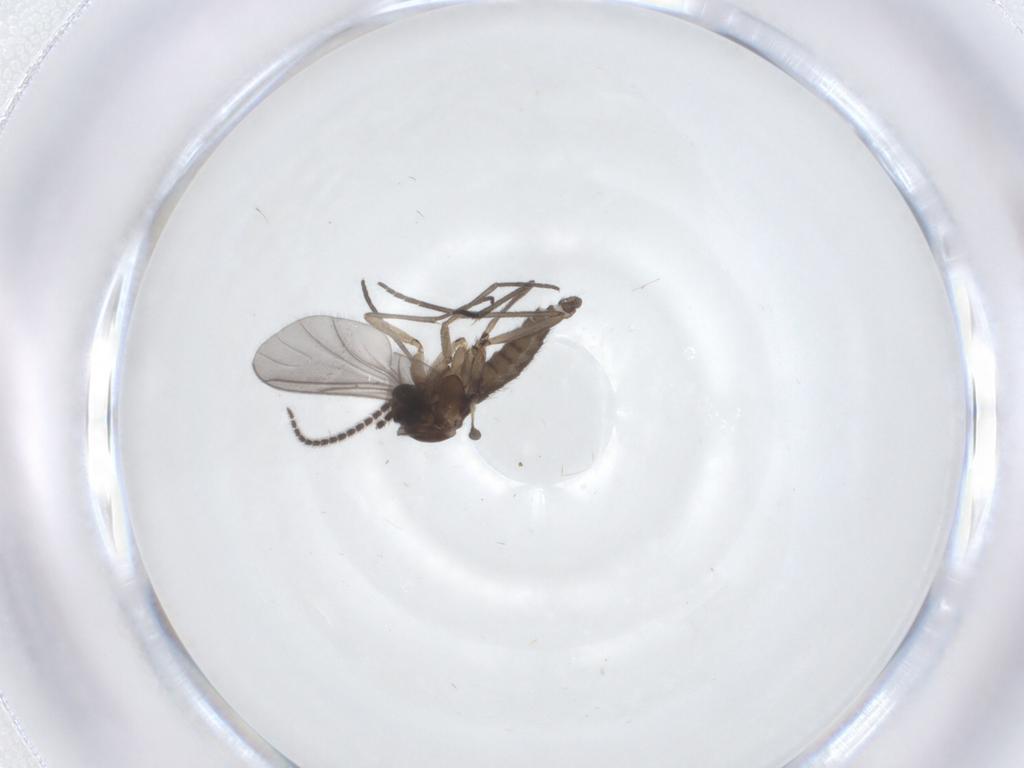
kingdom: Animalia
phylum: Arthropoda
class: Insecta
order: Diptera
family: Sciaridae
